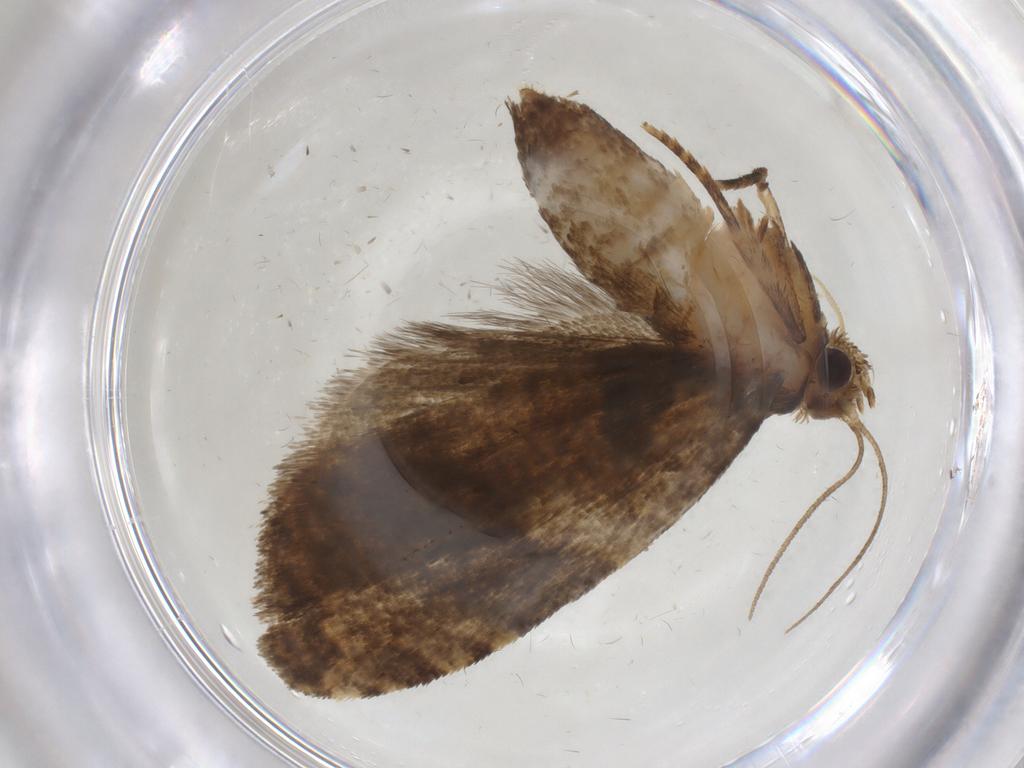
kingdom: Animalia
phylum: Arthropoda
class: Insecta
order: Lepidoptera
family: Tortricidae
